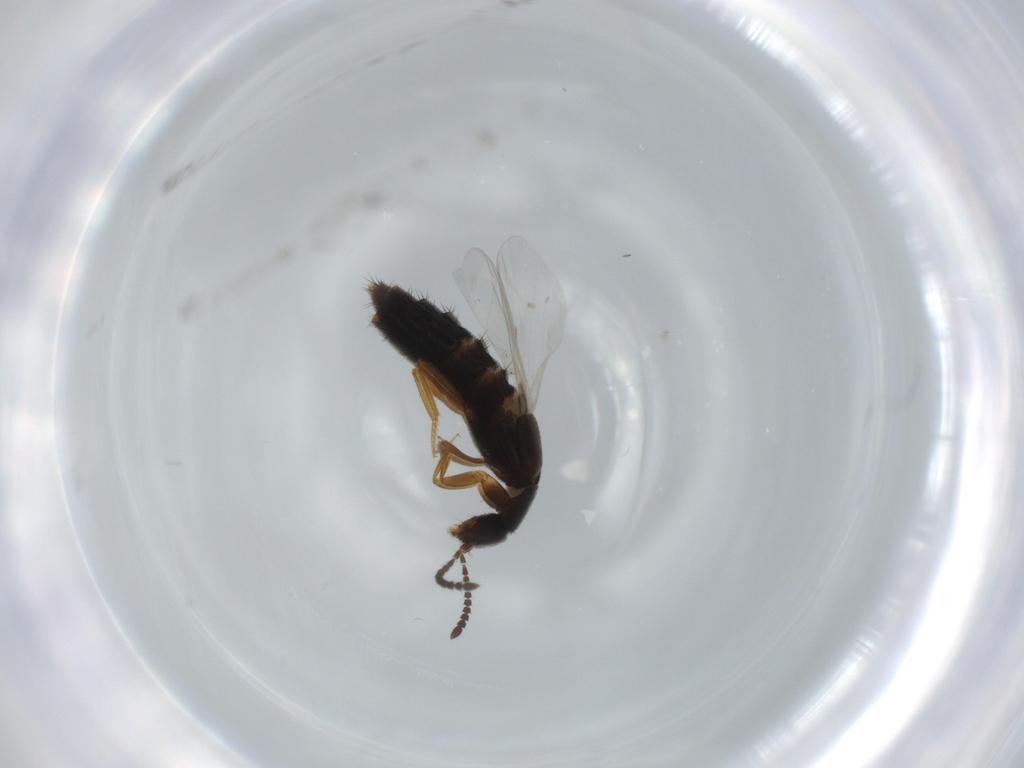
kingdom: Animalia
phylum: Arthropoda
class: Insecta
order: Coleoptera
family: Staphylinidae
